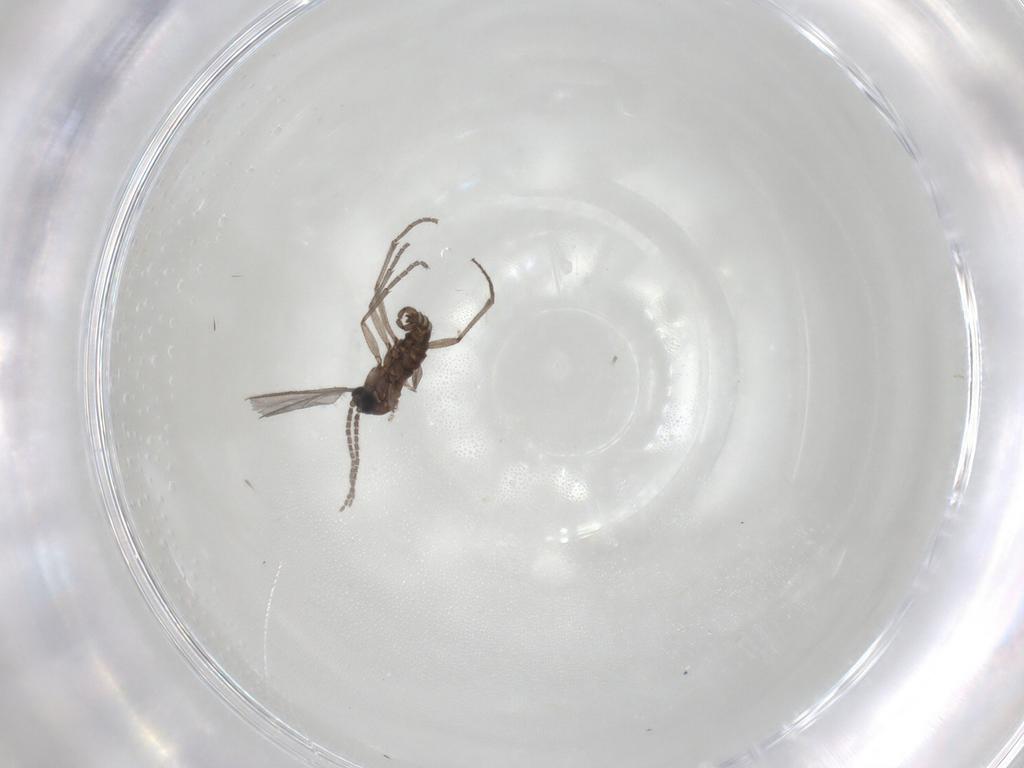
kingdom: Animalia
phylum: Arthropoda
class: Insecta
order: Diptera
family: Sciaridae
